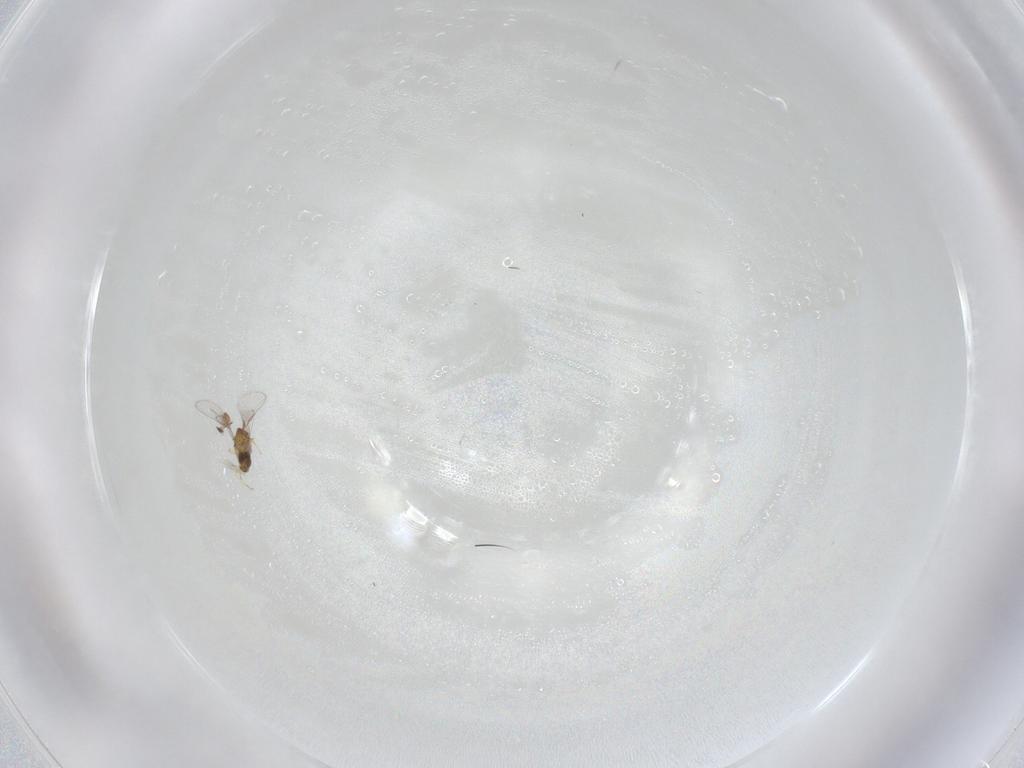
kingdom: Animalia
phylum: Arthropoda
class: Insecta
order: Hymenoptera
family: Trichogrammatidae
